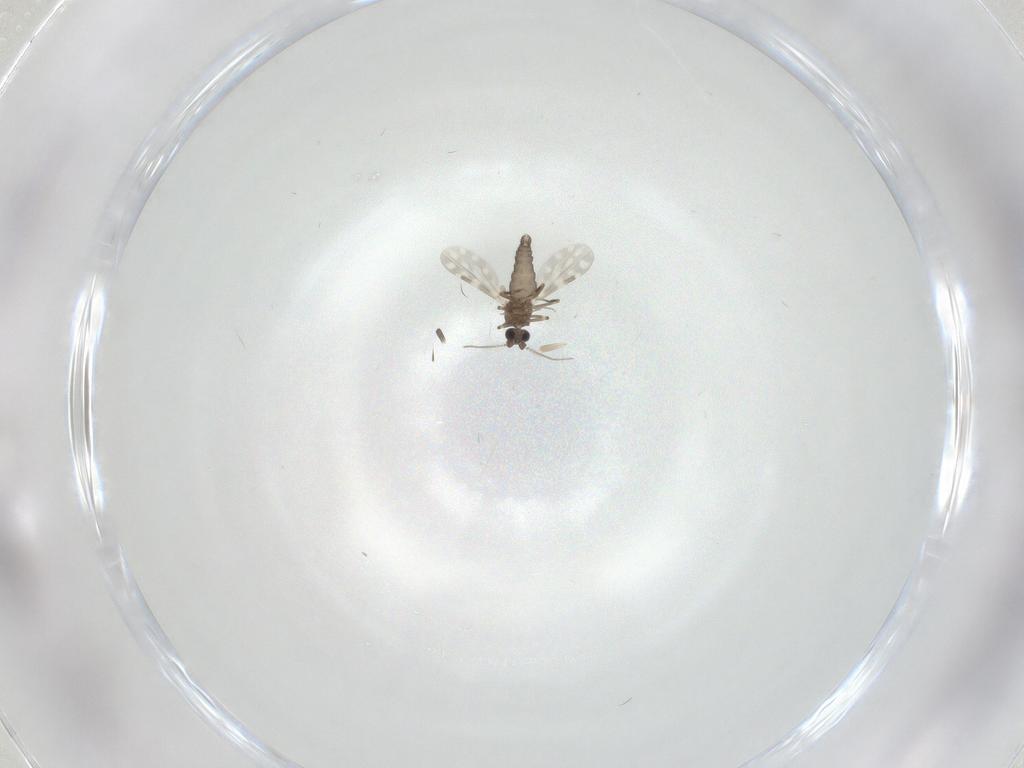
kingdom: Animalia
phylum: Arthropoda
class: Insecta
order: Diptera
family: Ceratopogonidae
